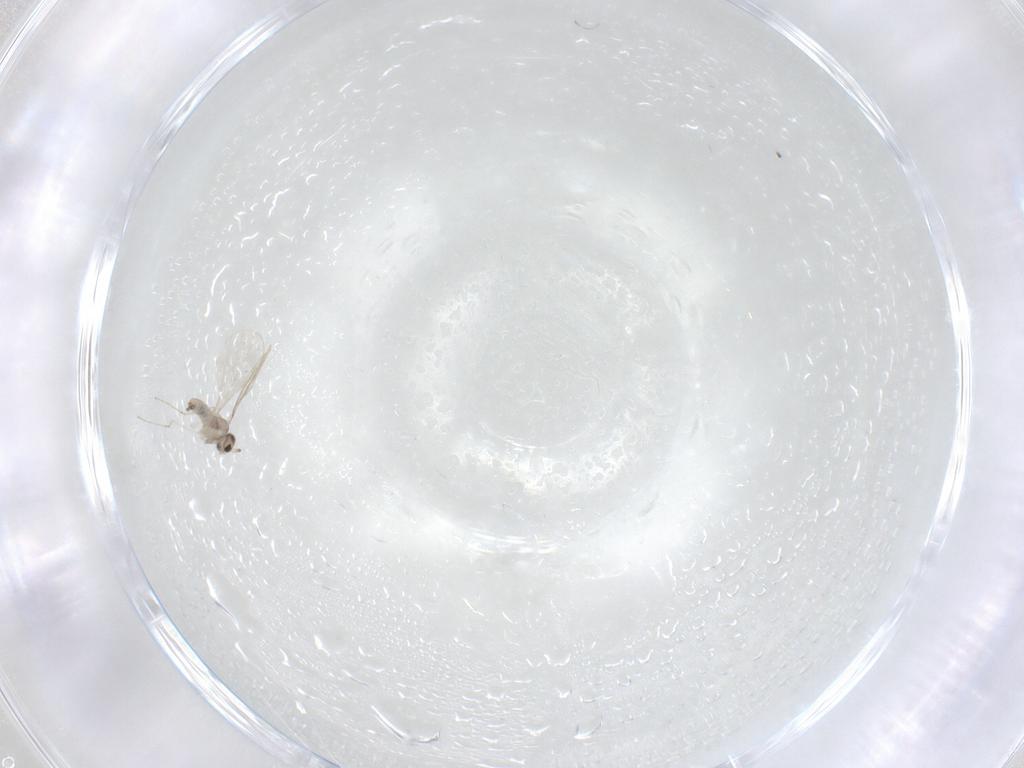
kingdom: Animalia
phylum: Arthropoda
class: Insecta
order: Diptera
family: Cecidomyiidae
